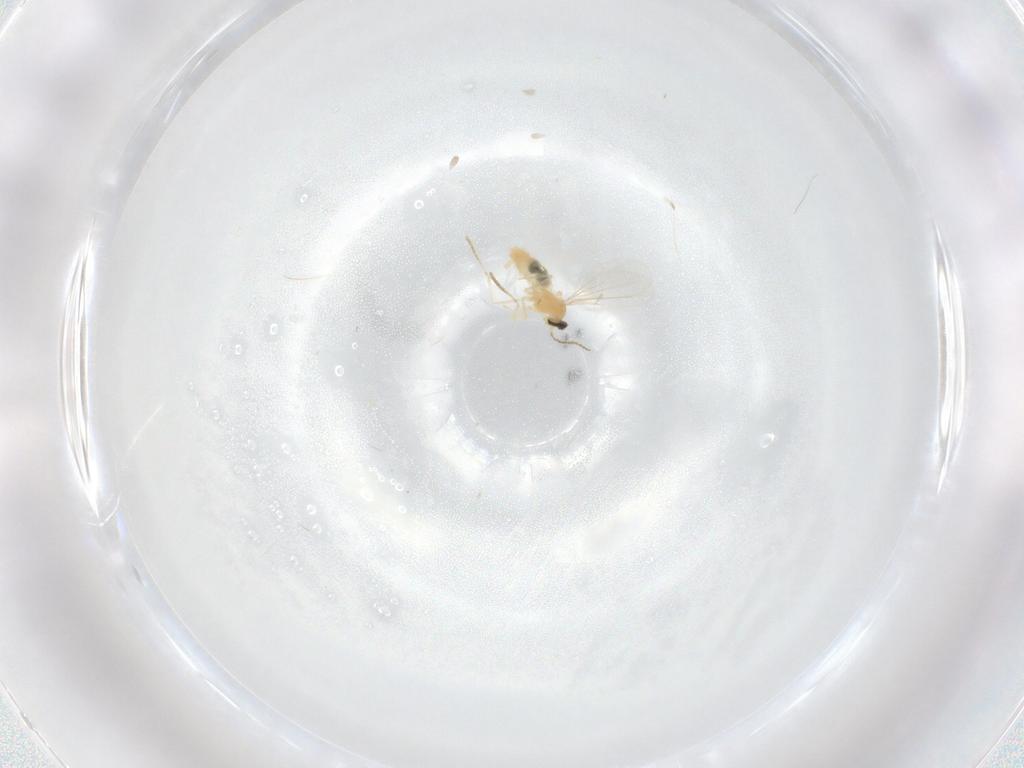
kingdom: Animalia
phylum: Arthropoda
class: Insecta
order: Diptera
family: Cecidomyiidae
